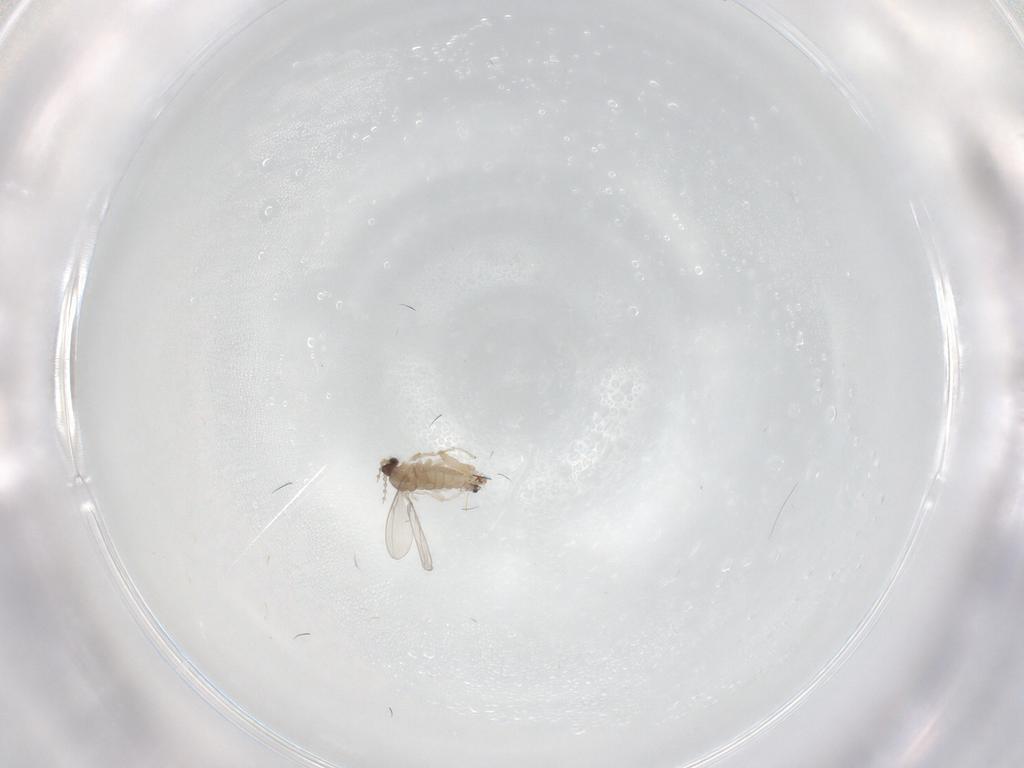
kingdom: Animalia
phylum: Arthropoda
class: Insecta
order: Diptera
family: Cecidomyiidae
